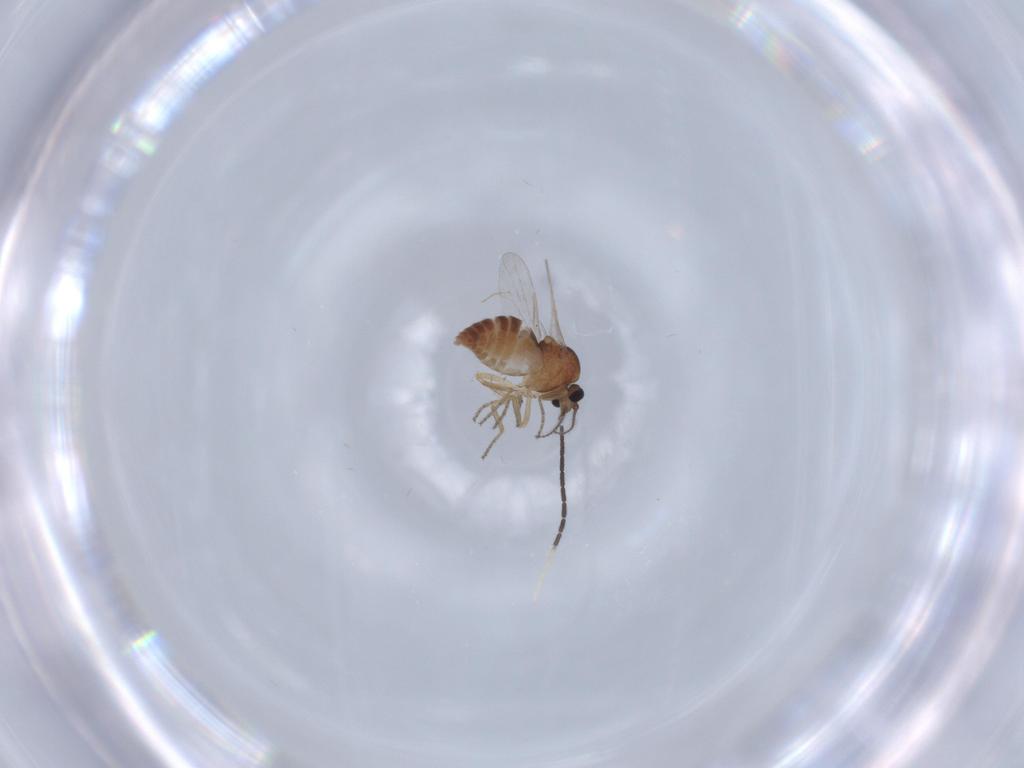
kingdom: Animalia
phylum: Arthropoda
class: Insecta
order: Diptera
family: Ceratopogonidae
